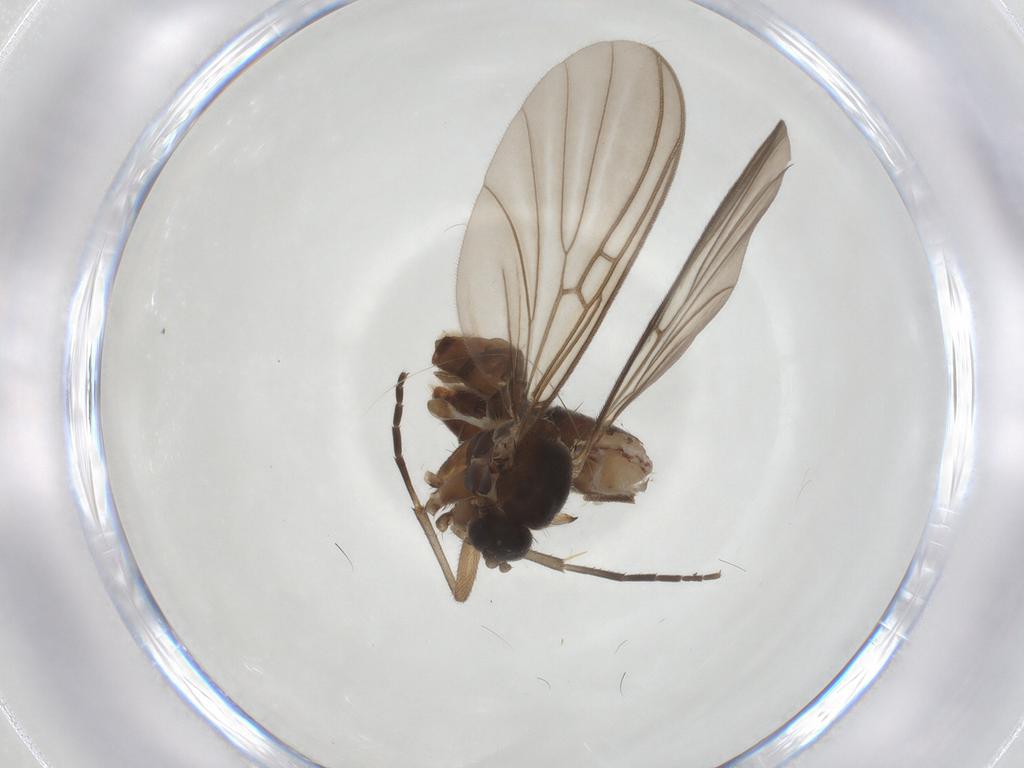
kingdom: Animalia
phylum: Arthropoda
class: Insecta
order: Diptera
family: Mycetophilidae
